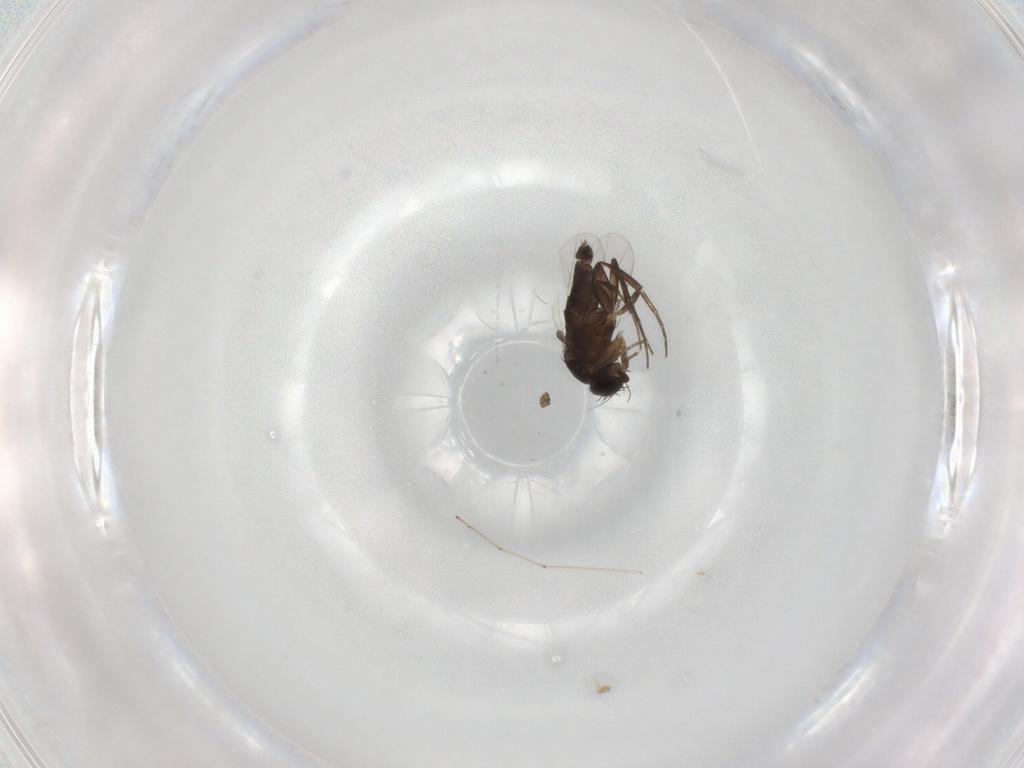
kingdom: Animalia
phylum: Arthropoda
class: Insecta
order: Diptera
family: Phoridae
